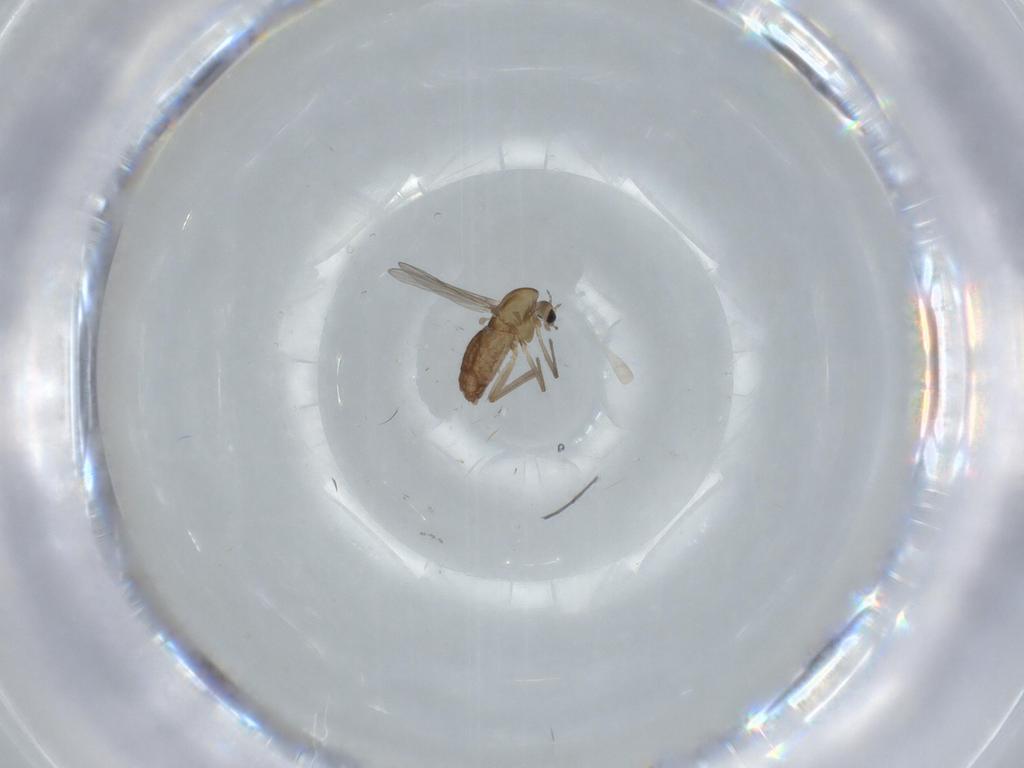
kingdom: Animalia
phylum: Arthropoda
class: Insecta
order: Diptera
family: Chironomidae
